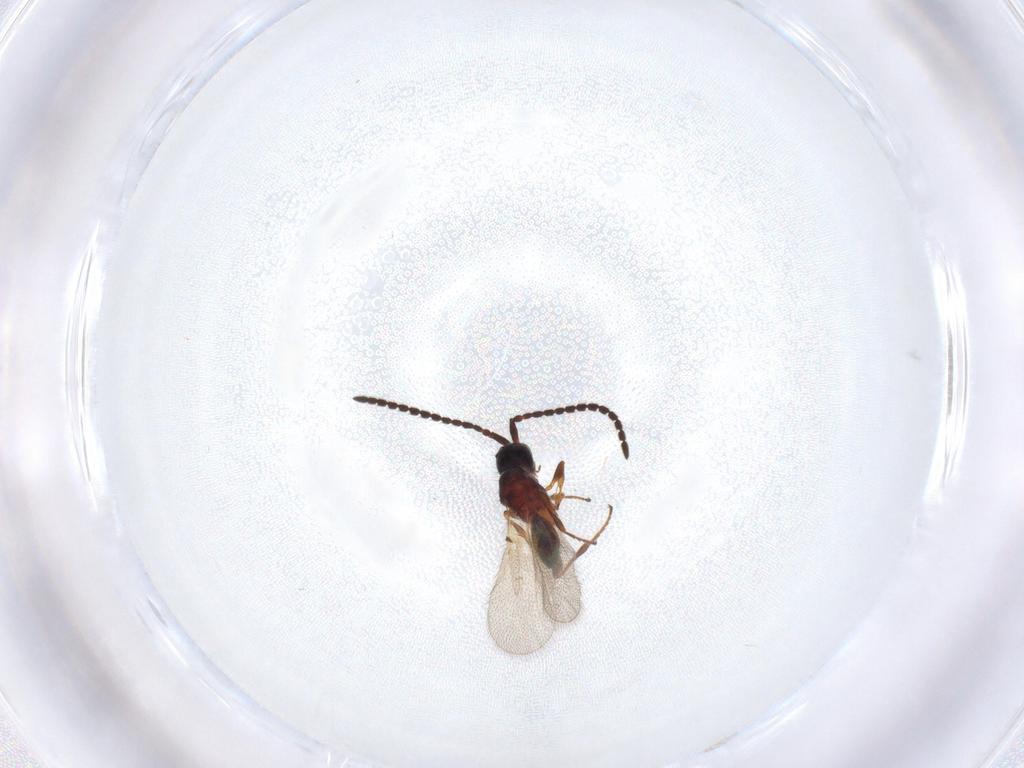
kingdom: Animalia
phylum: Arthropoda
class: Insecta
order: Hymenoptera
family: Diapriidae
